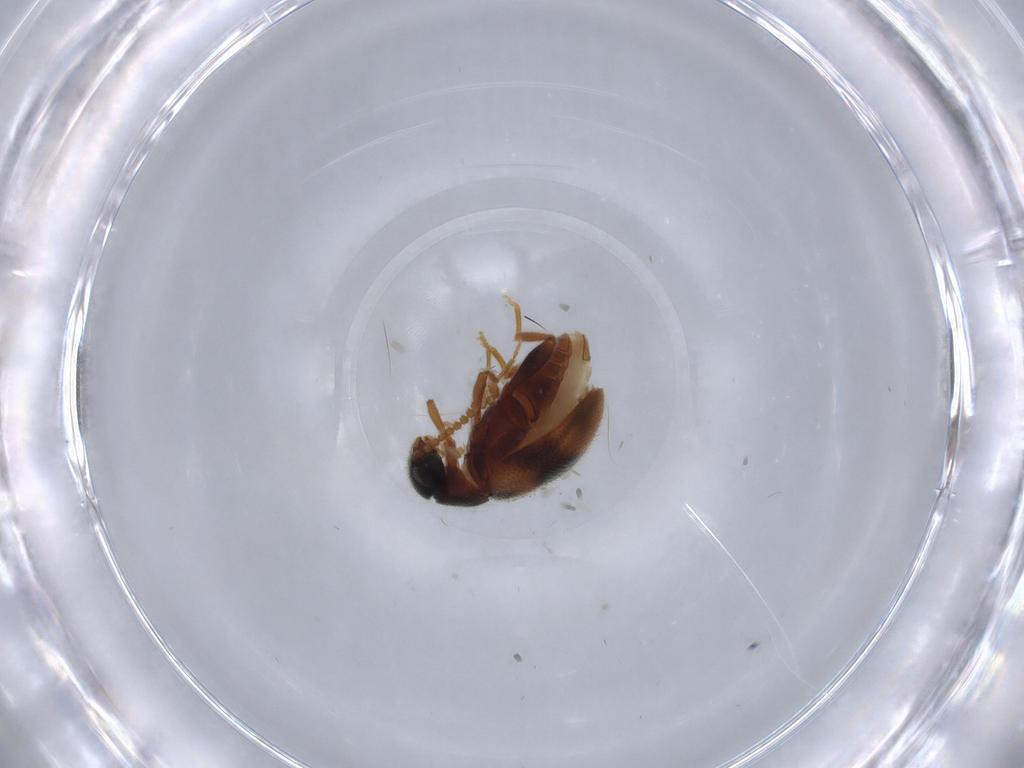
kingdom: Animalia
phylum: Arthropoda
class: Insecta
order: Coleoptera
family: Aderidae
